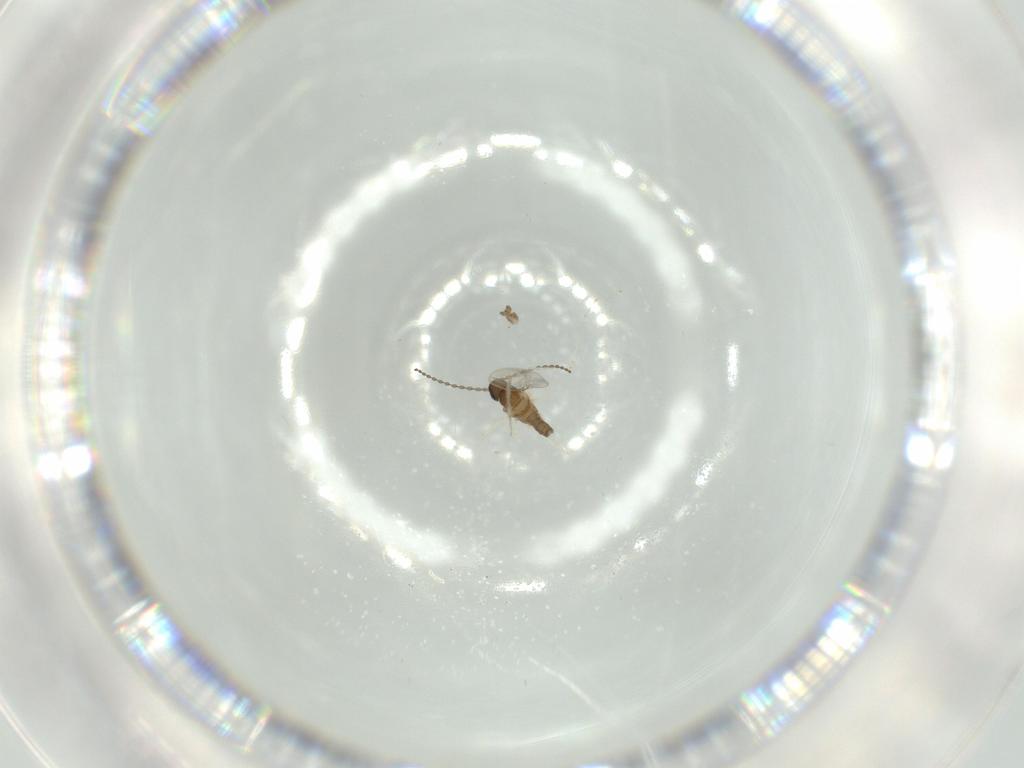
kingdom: Animalia
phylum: Arthropoda
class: Insecta
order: Diptera
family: Cecidomyiidae
